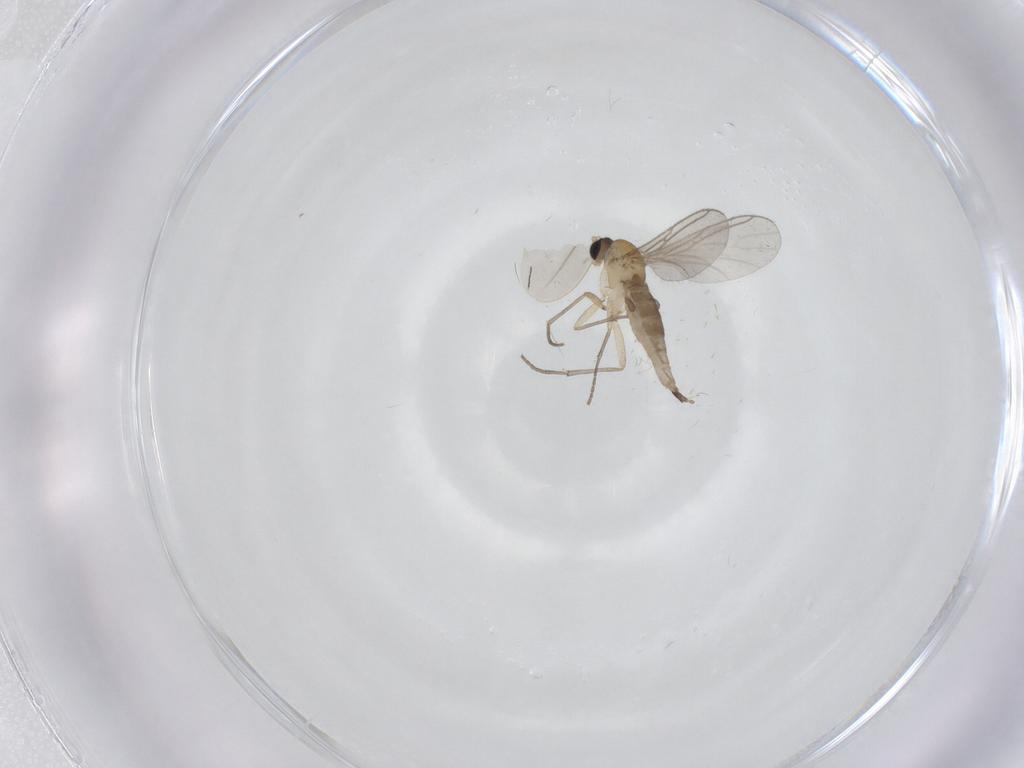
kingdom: Animalia
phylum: Arthropoda
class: Insecta
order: Diptera
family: Sciaridae
